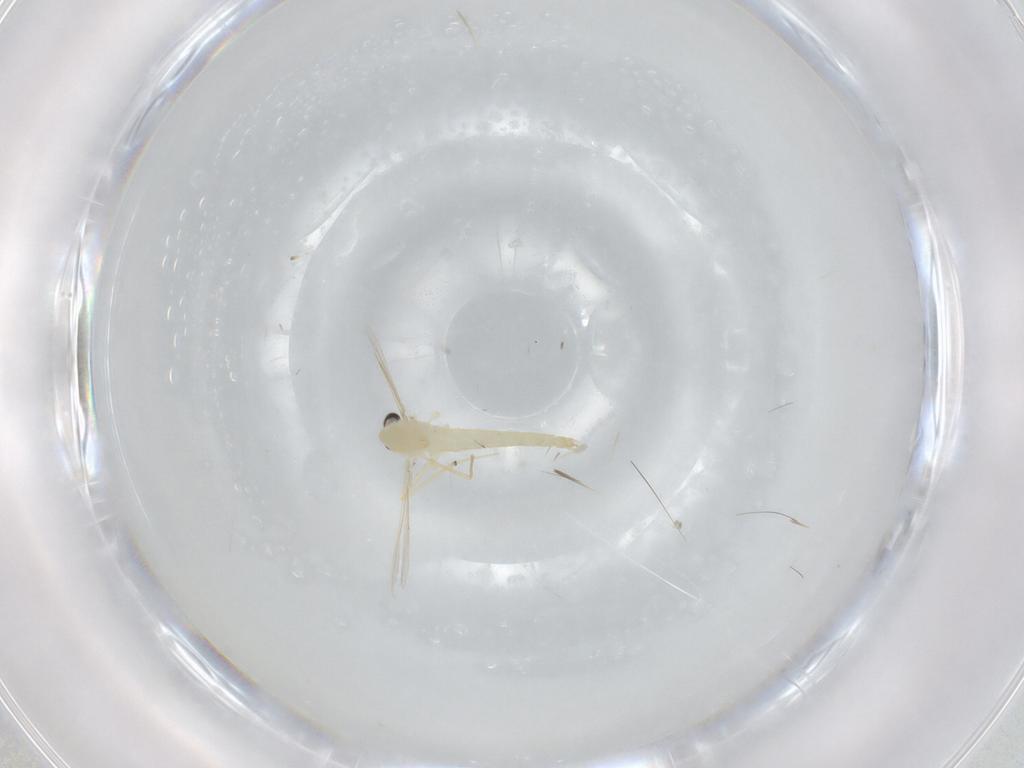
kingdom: Animalia
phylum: Arthropoda
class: Insecta
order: Diptera
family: Chironomidae
